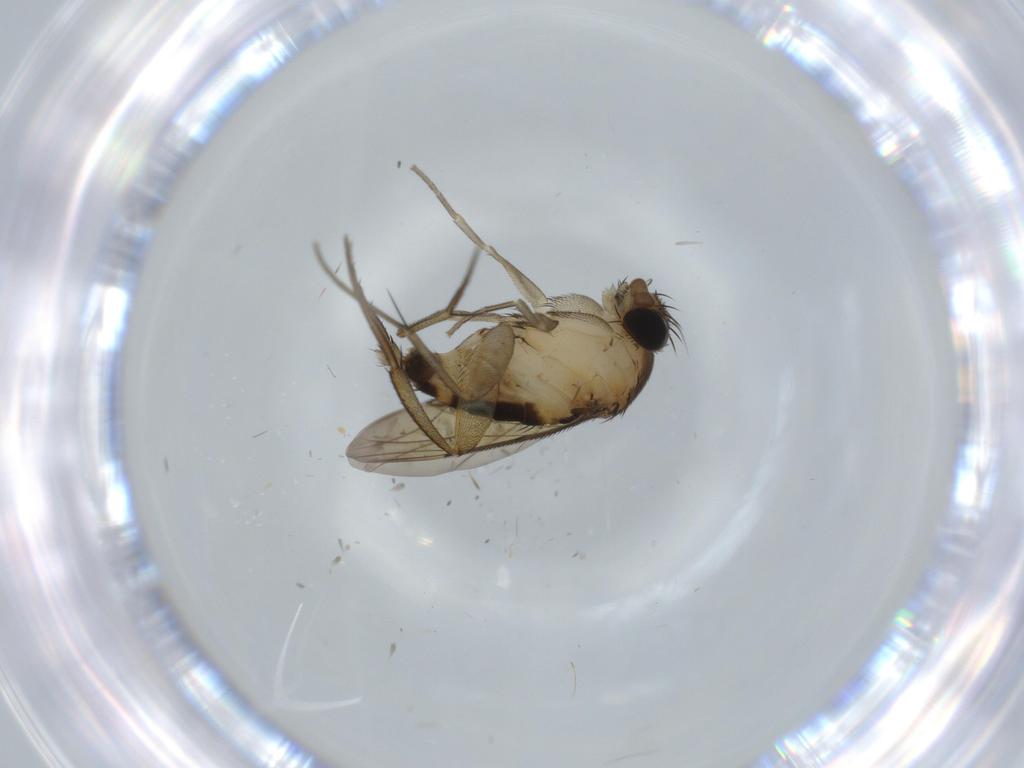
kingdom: Animalia
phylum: Arthropoda
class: Insecta
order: Diptera
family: Mycetophilidae
